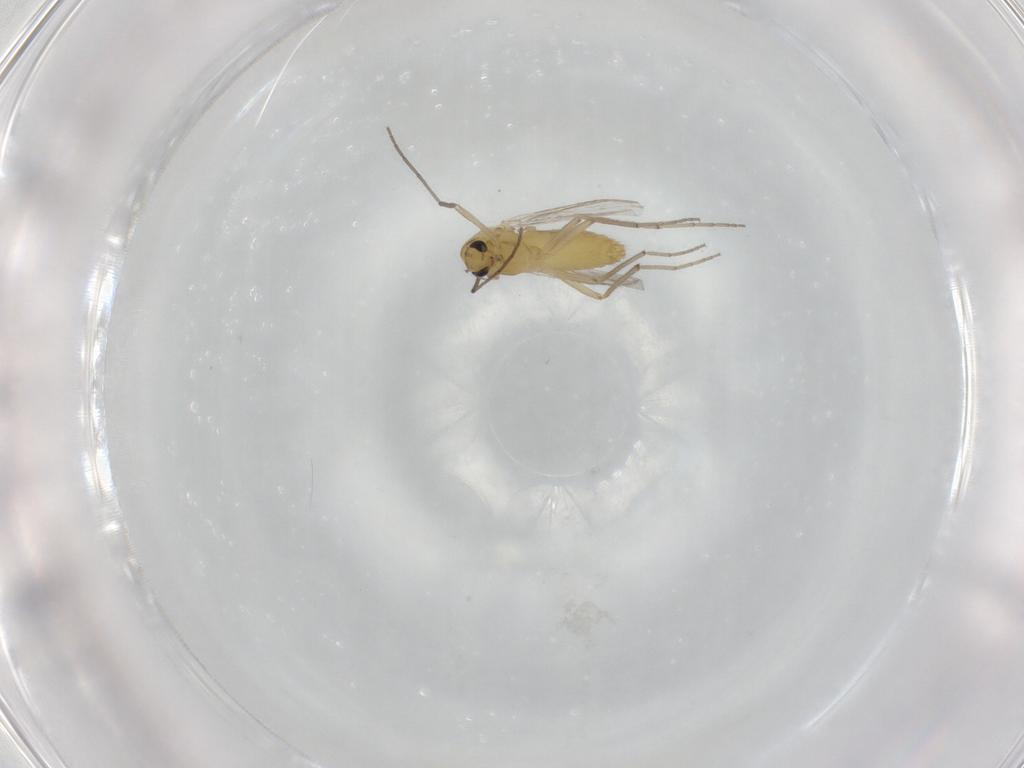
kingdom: Animalia
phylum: Arthropoda
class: Insecta
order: Diptera
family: Chironomidae
